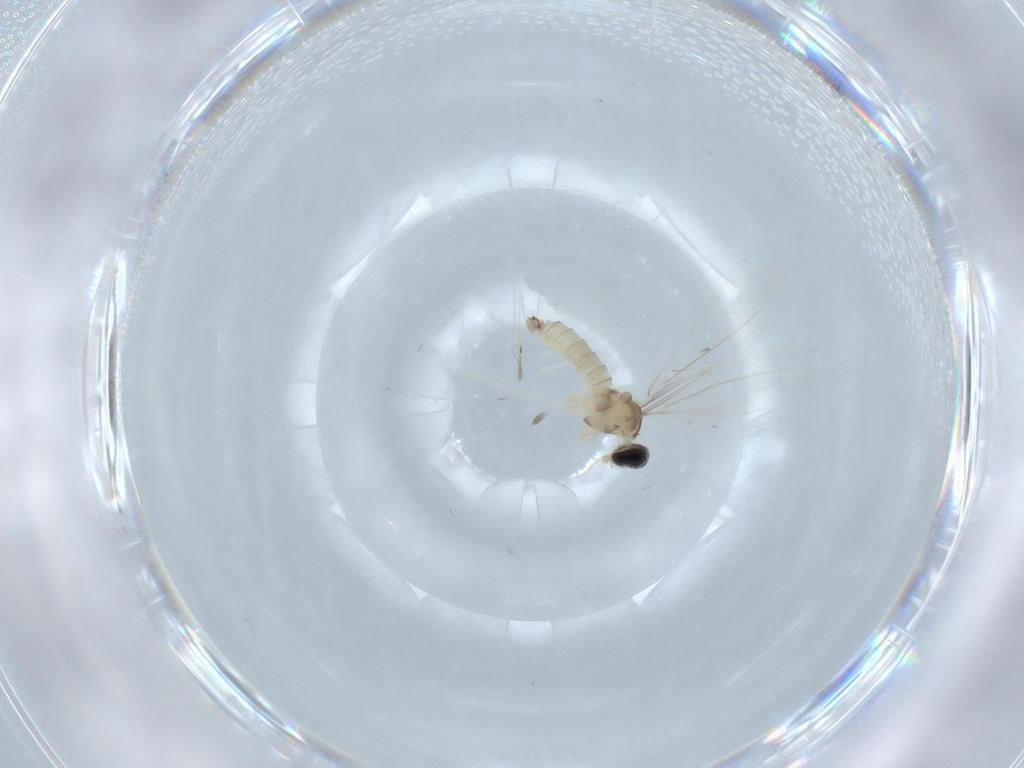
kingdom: Animalia
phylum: Arthropoda
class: Insecta
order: Diptera
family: Cecidomyiidae
